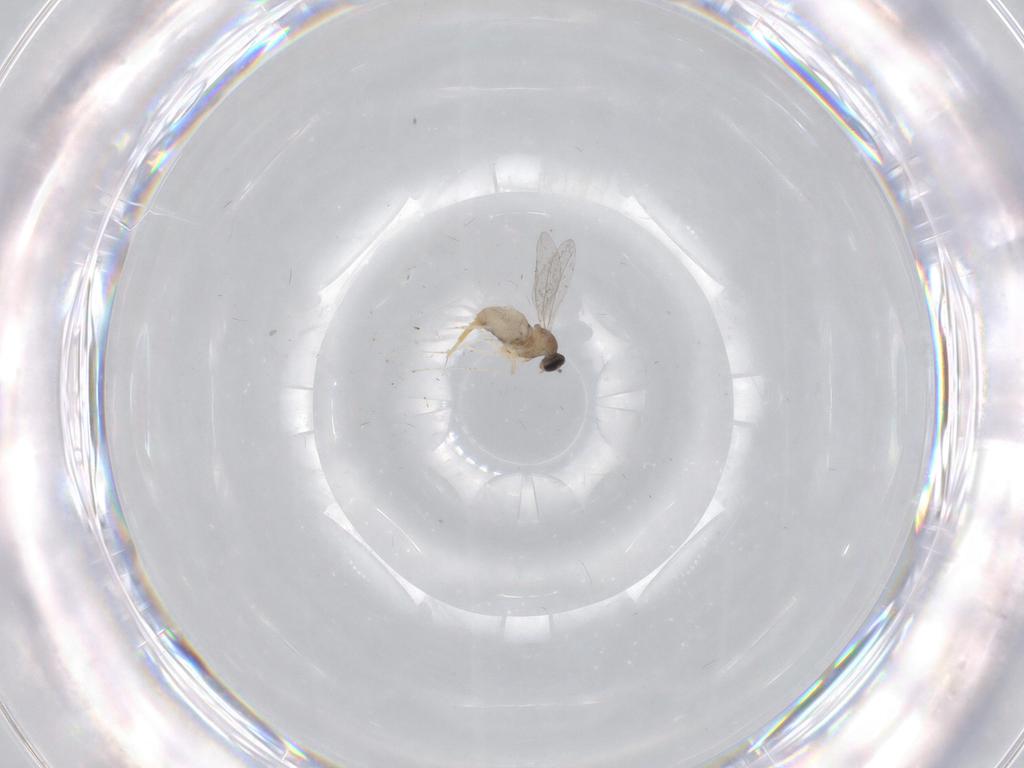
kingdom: Animalia
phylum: Arthropoda
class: Insecta
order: Diptera
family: Cecidomyiidae
